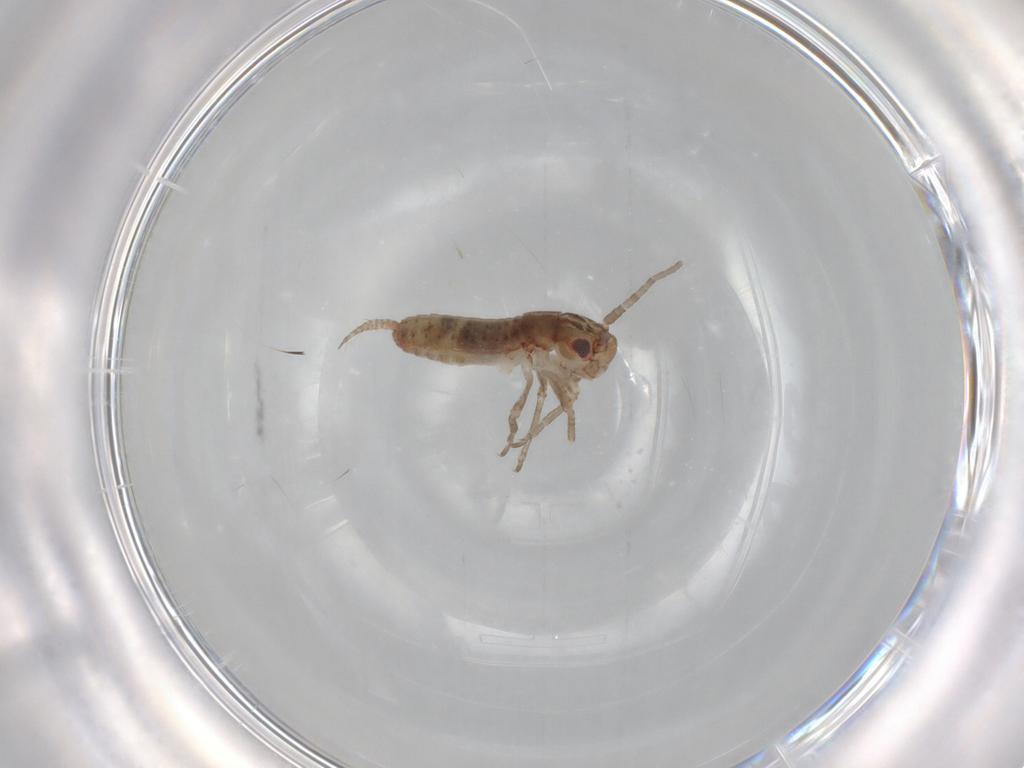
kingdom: Animalia
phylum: Arthropoda
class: Insecta
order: Orthoptera
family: Mogoplistidae
